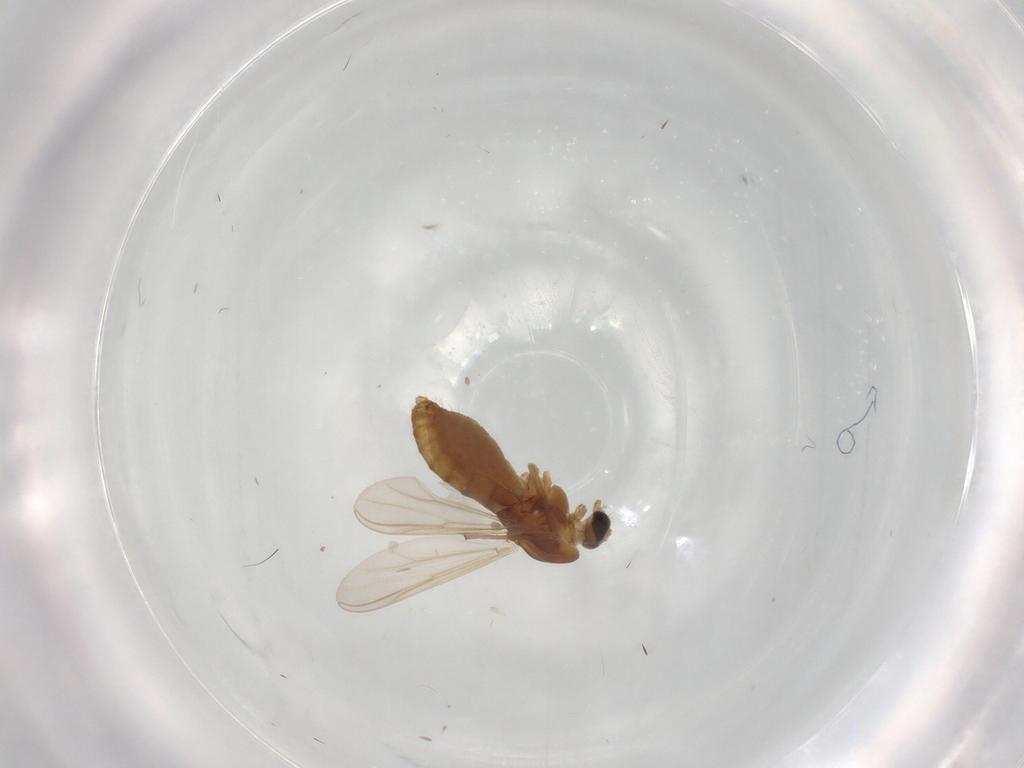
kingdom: Animalia
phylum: Arthropoda
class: Insecta
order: Diptera
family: Chironomidae
